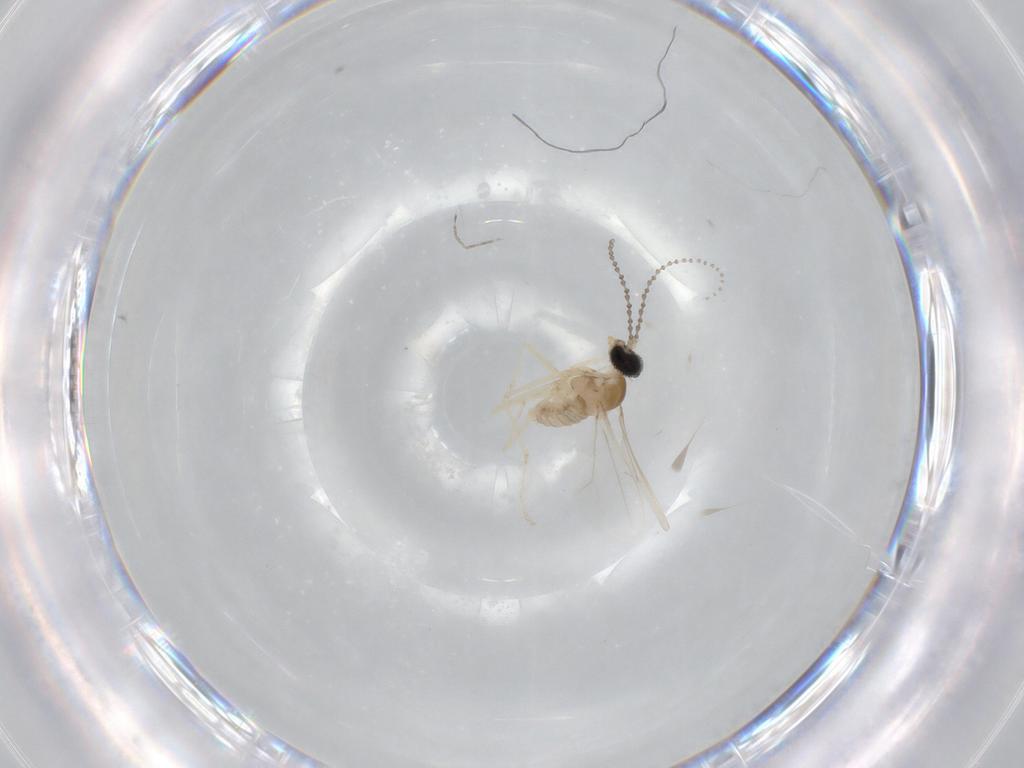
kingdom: Animalia
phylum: Arthropoda
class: Insecta
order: Diptera
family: Cecidomyiidae
